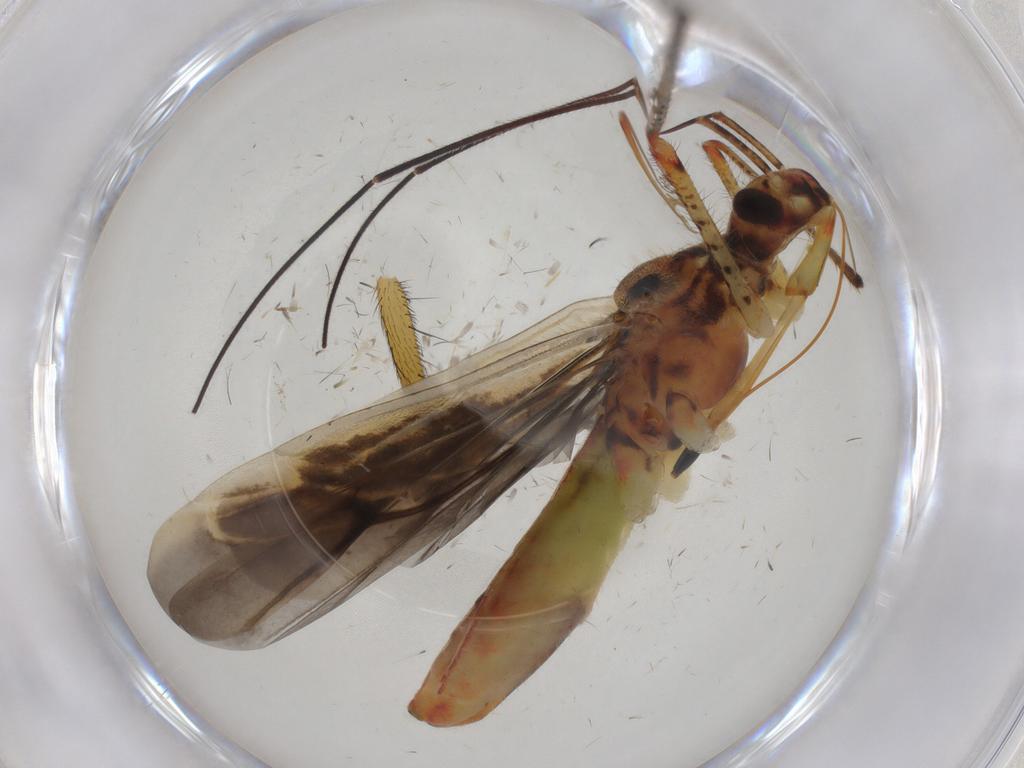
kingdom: Animalia
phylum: Arthropoda
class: Insecta
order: Hemiptera
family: Miridae
